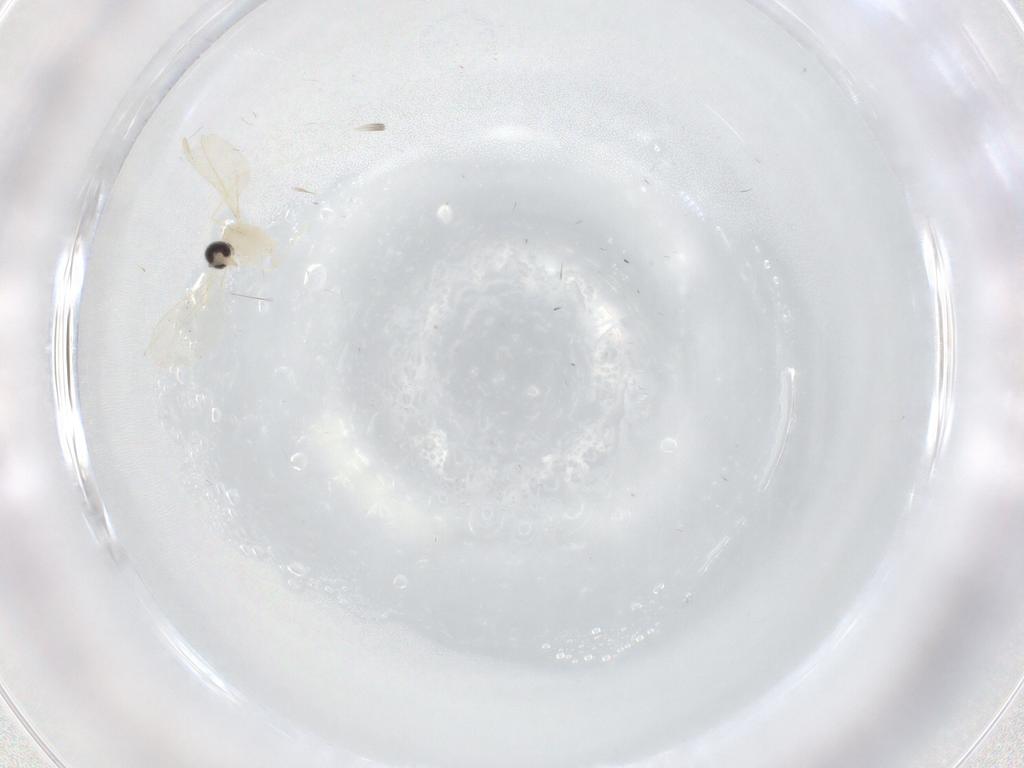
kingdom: Animalia
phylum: Arthropoda
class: Insecta
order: Diptera
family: Cecidomyiidae
